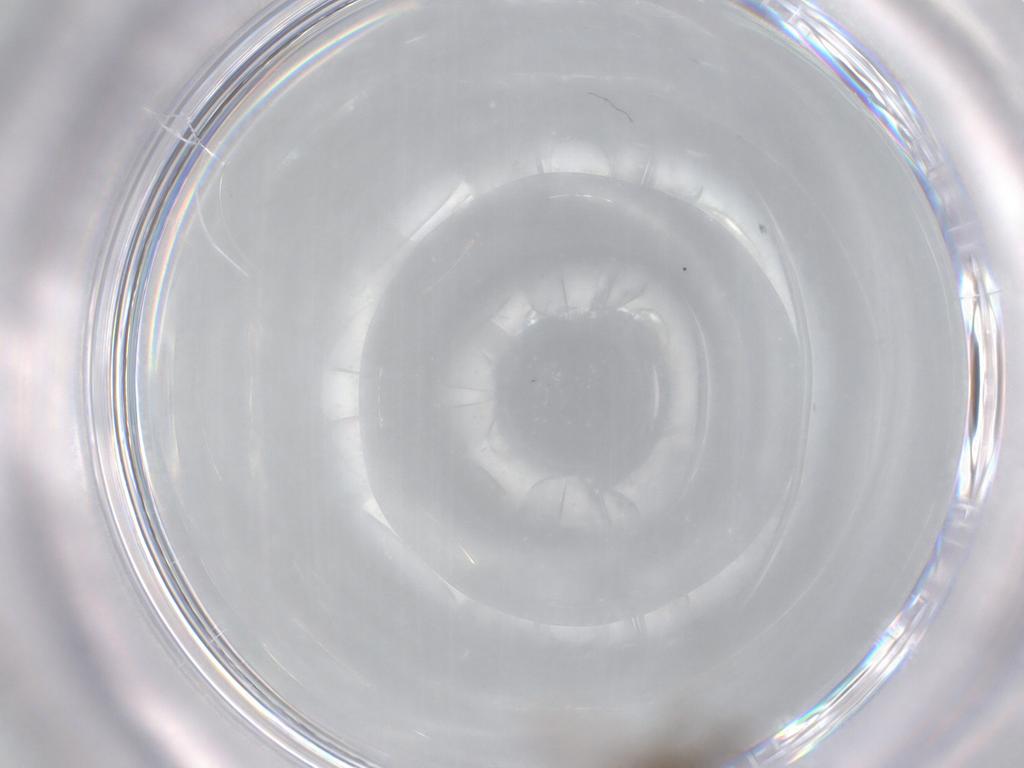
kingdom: Animalia
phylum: Arthropoda
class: Insecta
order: Diptera
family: Cecidomyiidae
